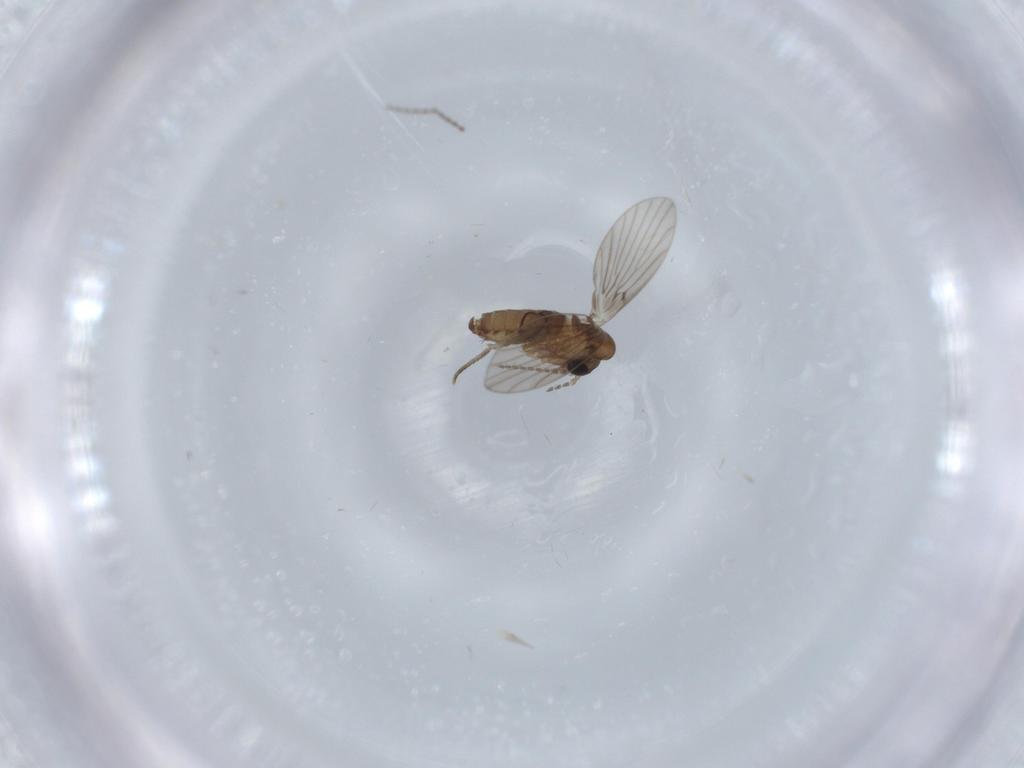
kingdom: Animalia
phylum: Arthropoda
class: Insecta
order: Diptera
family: Psychodidae
